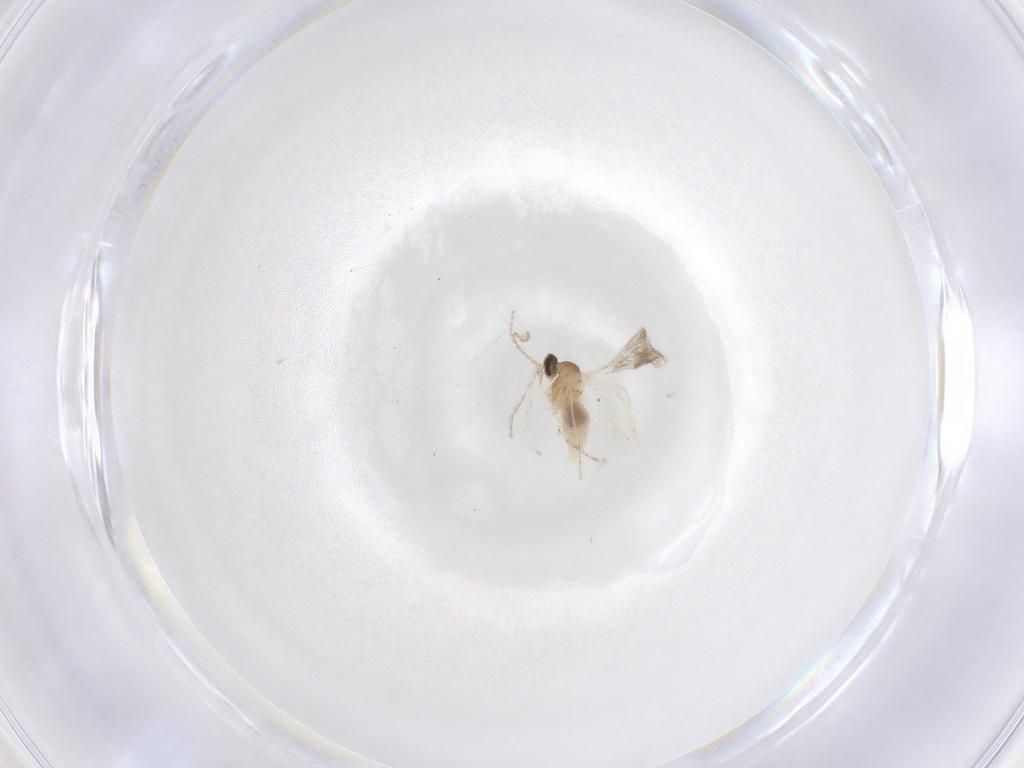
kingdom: Animalia
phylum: Arthropoda
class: Insecta
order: Diptera
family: Cecidomyiidae
